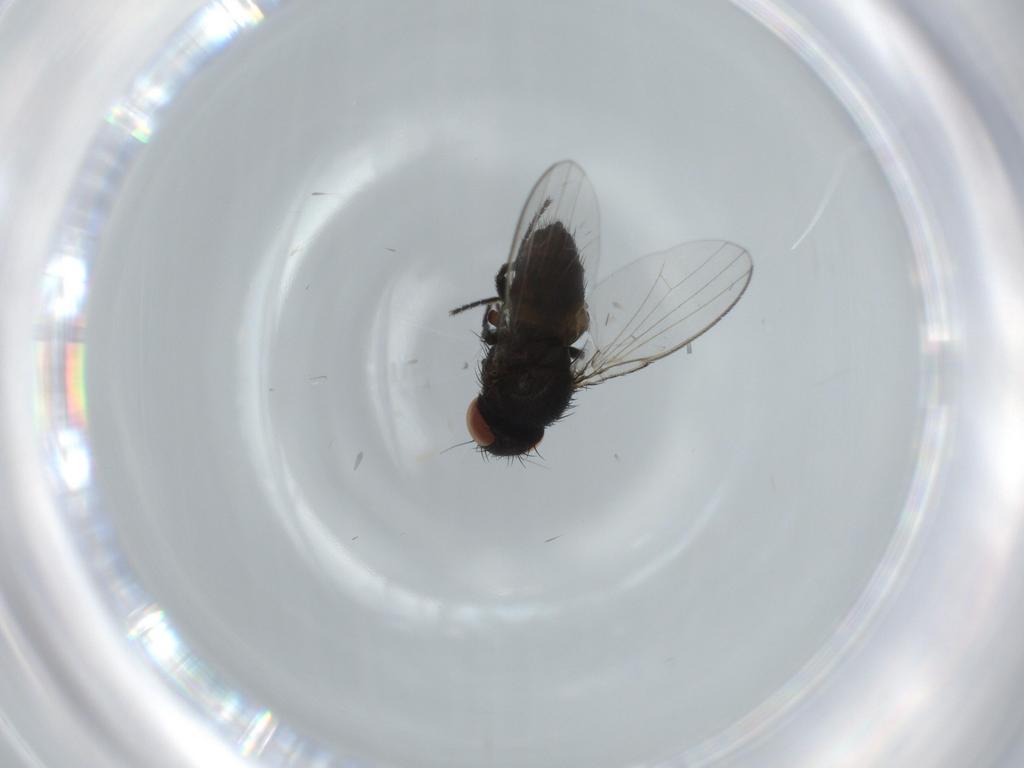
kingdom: Animalia
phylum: Arthropoda
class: Insecta
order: Diptera
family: Milichiidae
